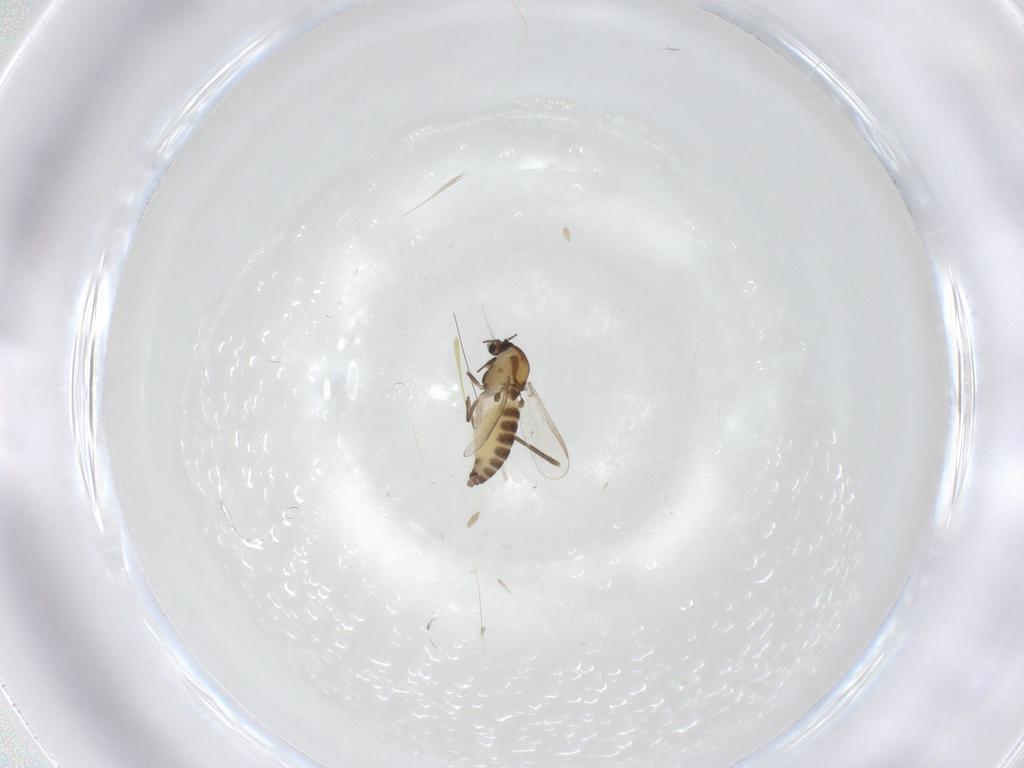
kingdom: Animalia
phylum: Arthropoda
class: Insecta
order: Diptera
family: Chironomidae
